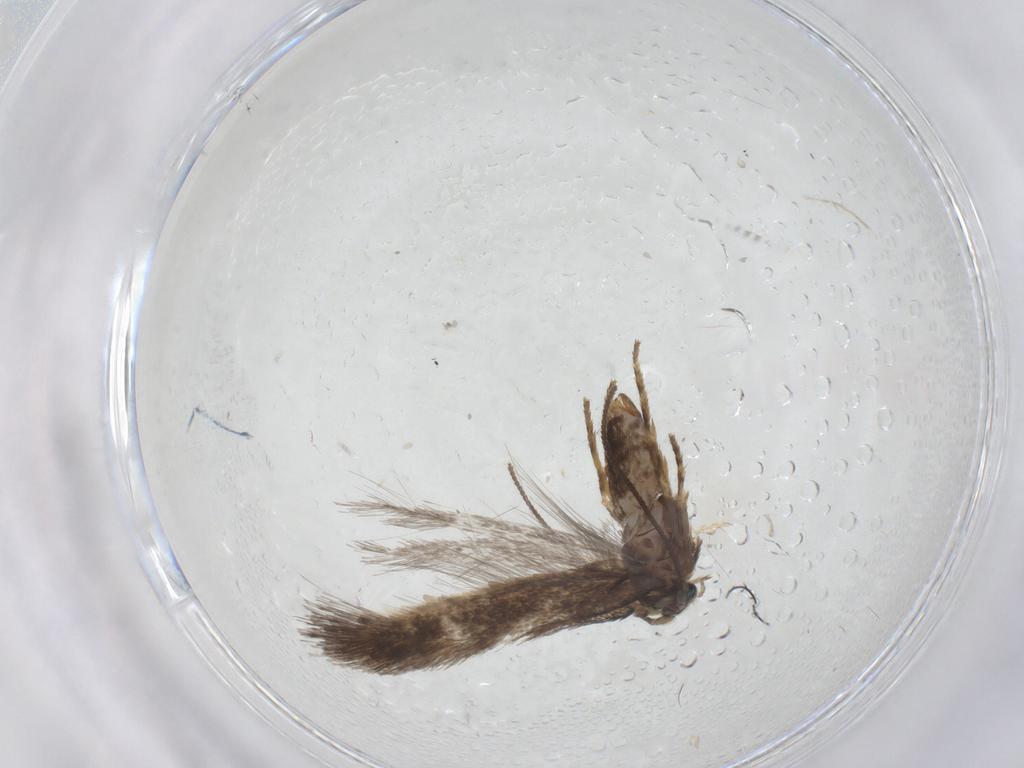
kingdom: Animalia
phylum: Arthropoda
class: Insecta
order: Lepidoptera
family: Nepticulidae
